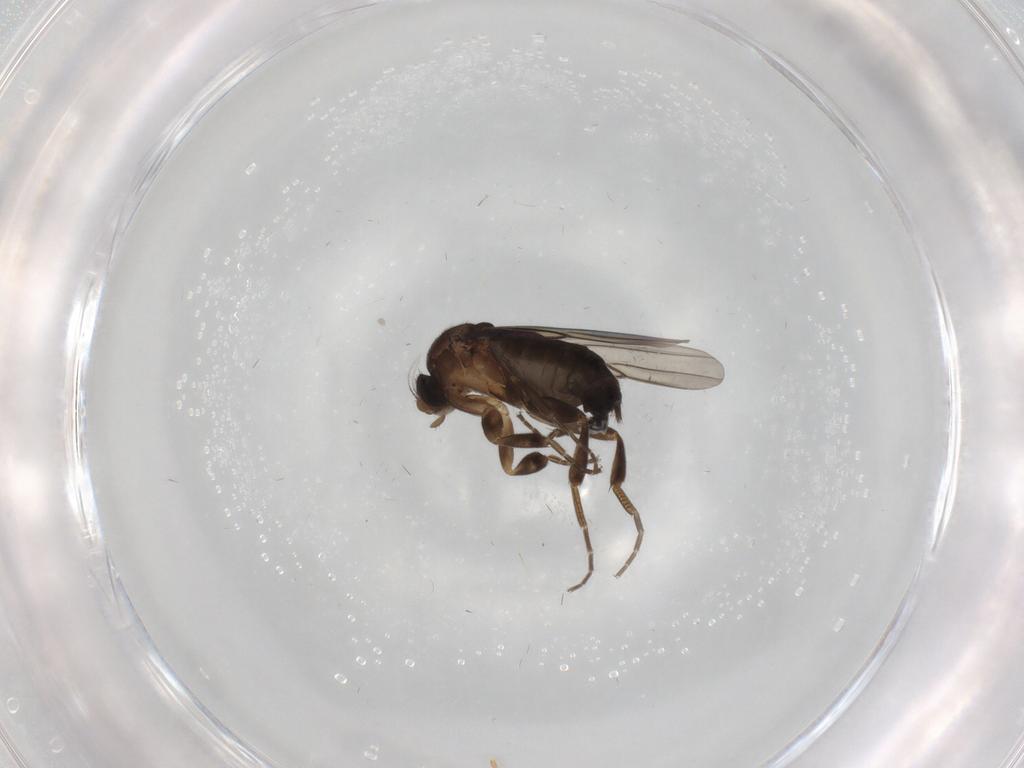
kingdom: Animalia
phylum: Arthropoda
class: Insecta
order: Diptera
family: Phoridae
